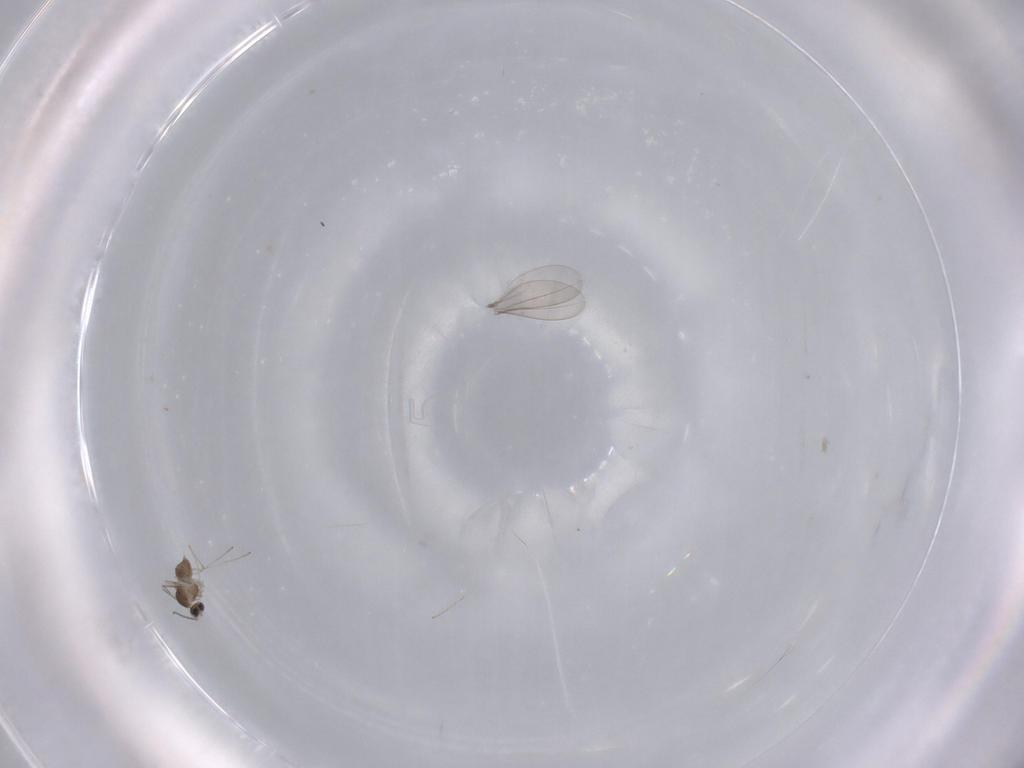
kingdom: Animalia
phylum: Arthropoda
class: Insecta
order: Diptera
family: Cecidomyiidae
